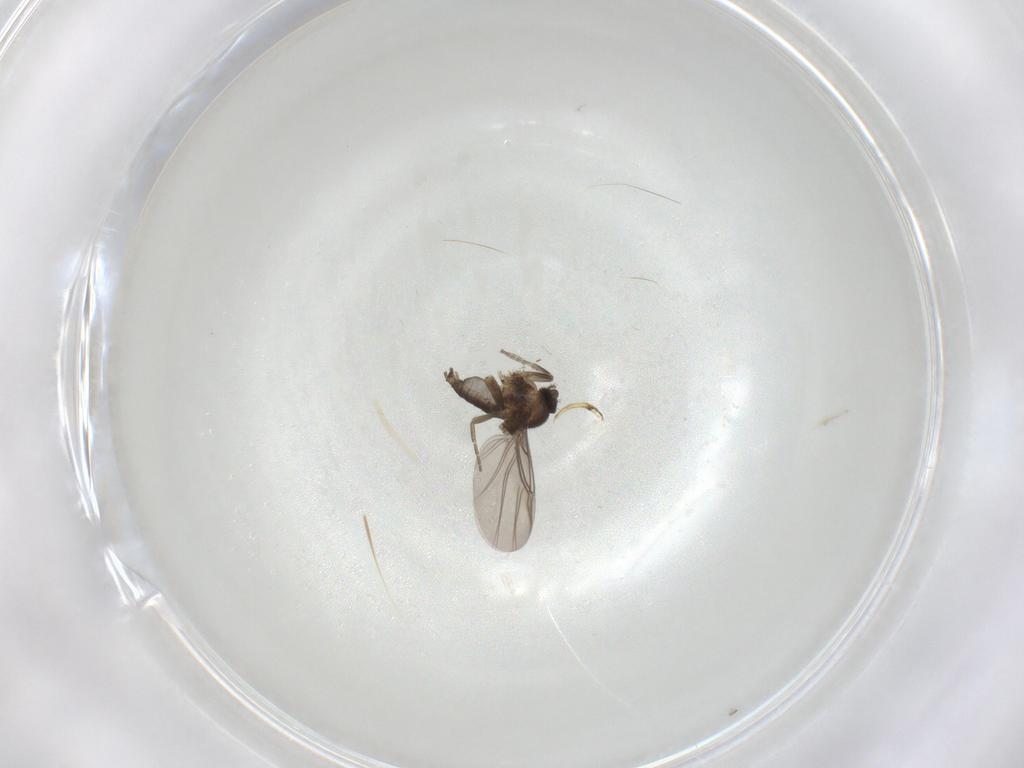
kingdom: Animalia
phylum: Arthropoda
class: Insecta
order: Diptera
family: Phoridae
